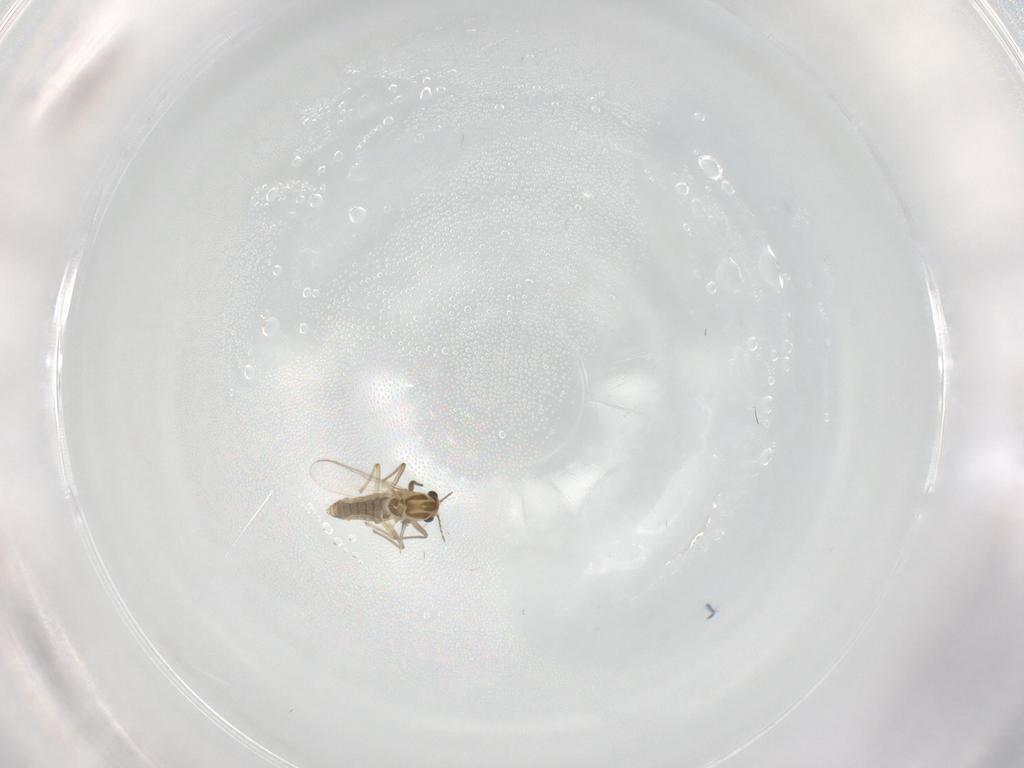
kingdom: Animalia
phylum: Arthropoda
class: Insecta
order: Diptera
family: Chironomidae
